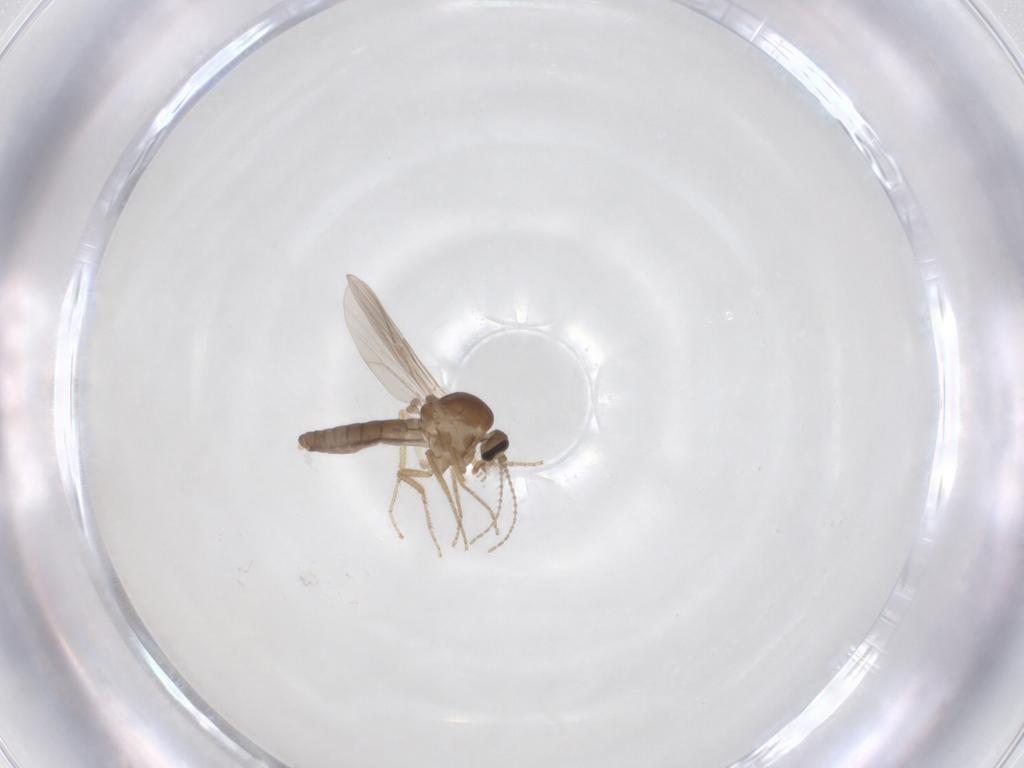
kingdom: Animalia
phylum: Arthropoda
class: Insecta
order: Diptera
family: Ceratopogonidae
